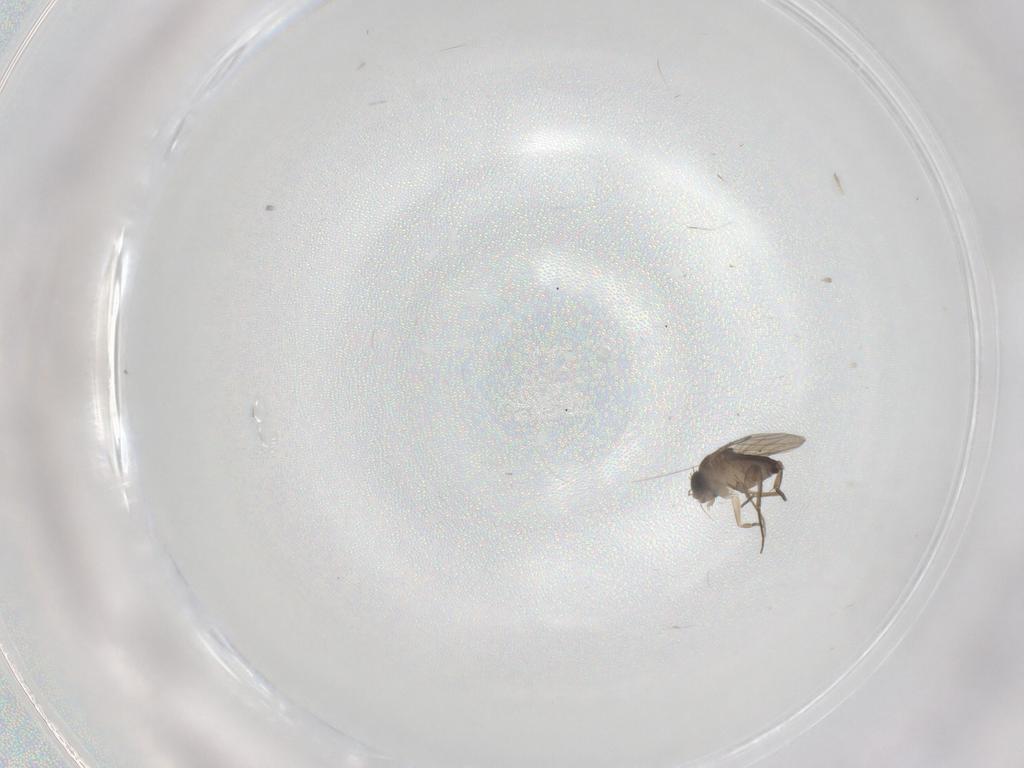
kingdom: Animalia
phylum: Arthropoda
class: Insecta
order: Diptera
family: Phoridae
